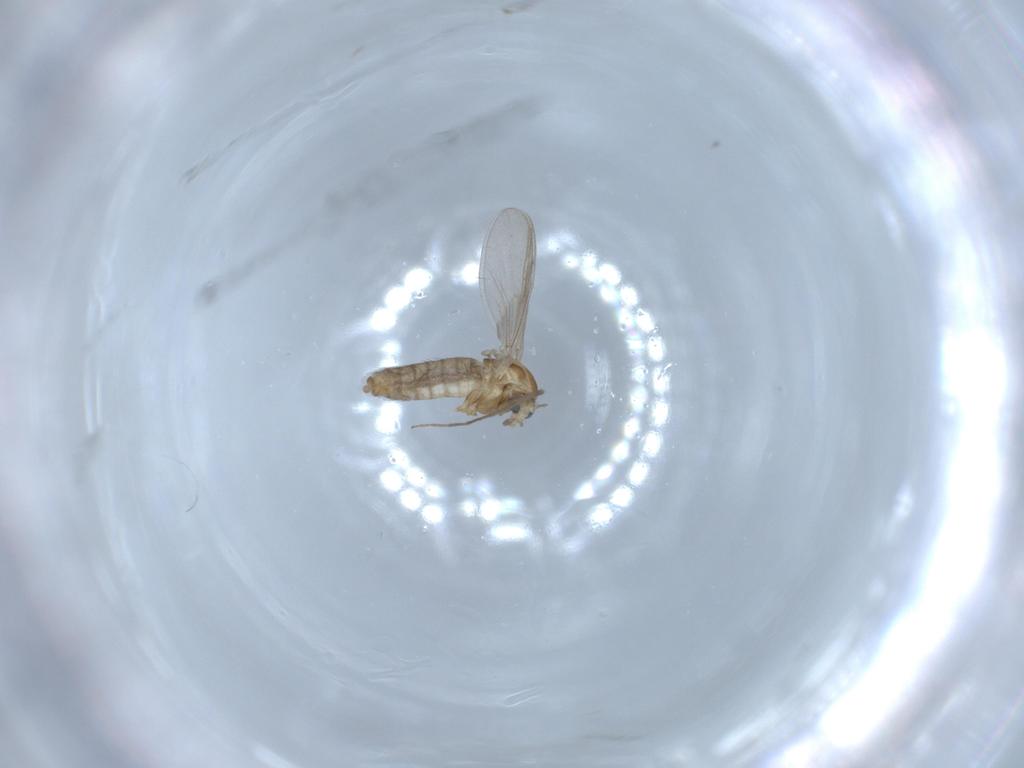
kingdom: Animalia
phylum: Arthropoda
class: Insecta
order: Diptera
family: Chironomidae
